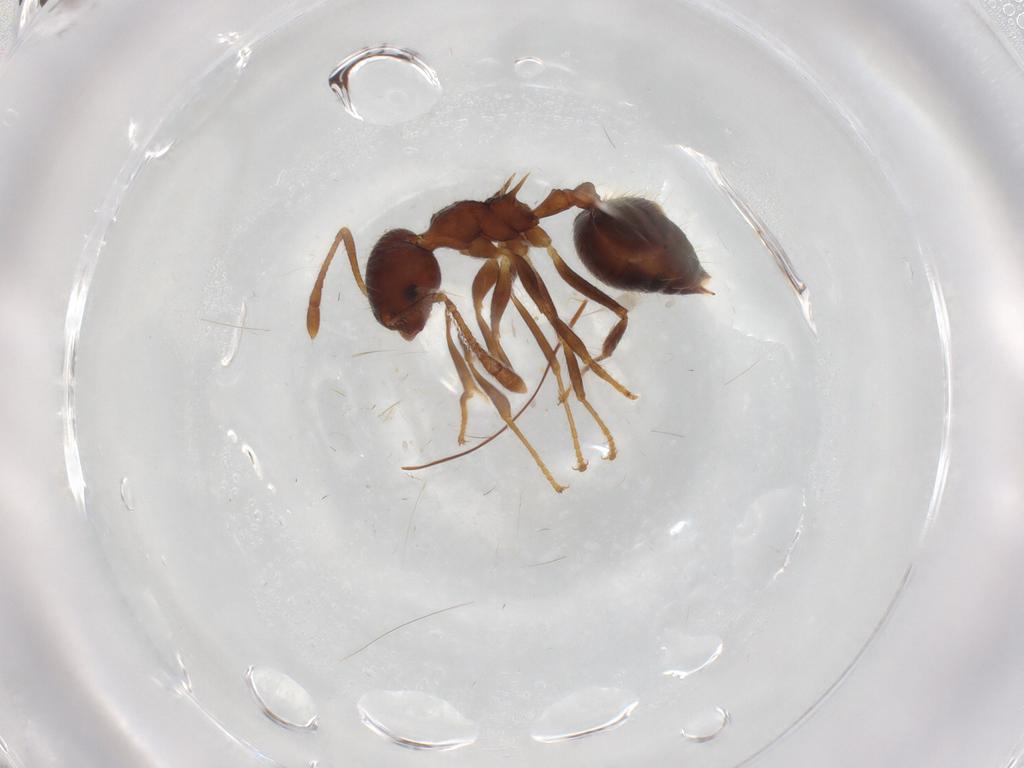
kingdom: Animalia
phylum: Arthropoda
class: Insecta
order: Hymenoptera
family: Formicidae
